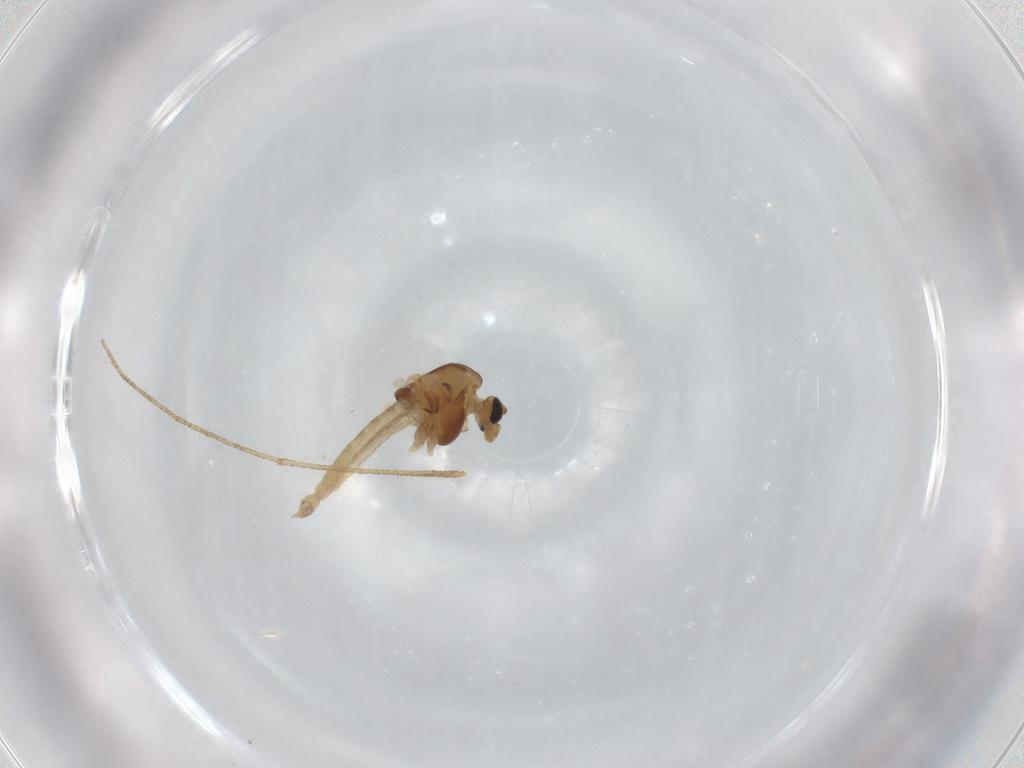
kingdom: Animalia
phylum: Arthropoda
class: Insecta
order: Diptera
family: Chironomidae
